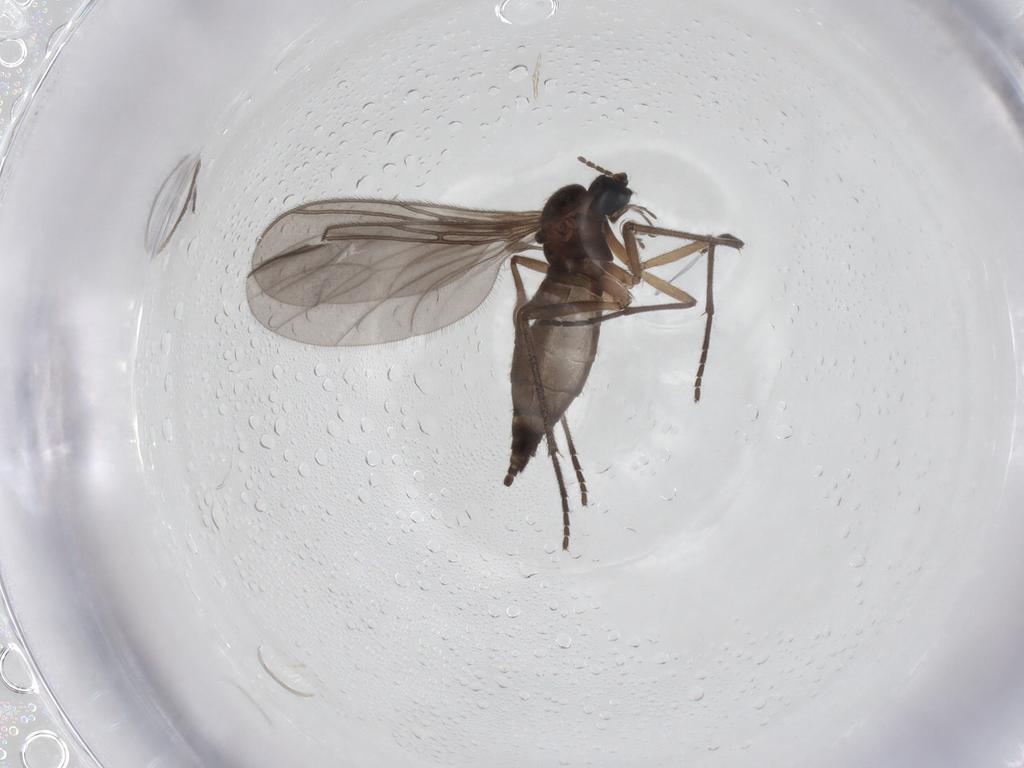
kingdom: Animalia
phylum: Arthropoda
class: Insecta
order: Diptera
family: Sciaridae
